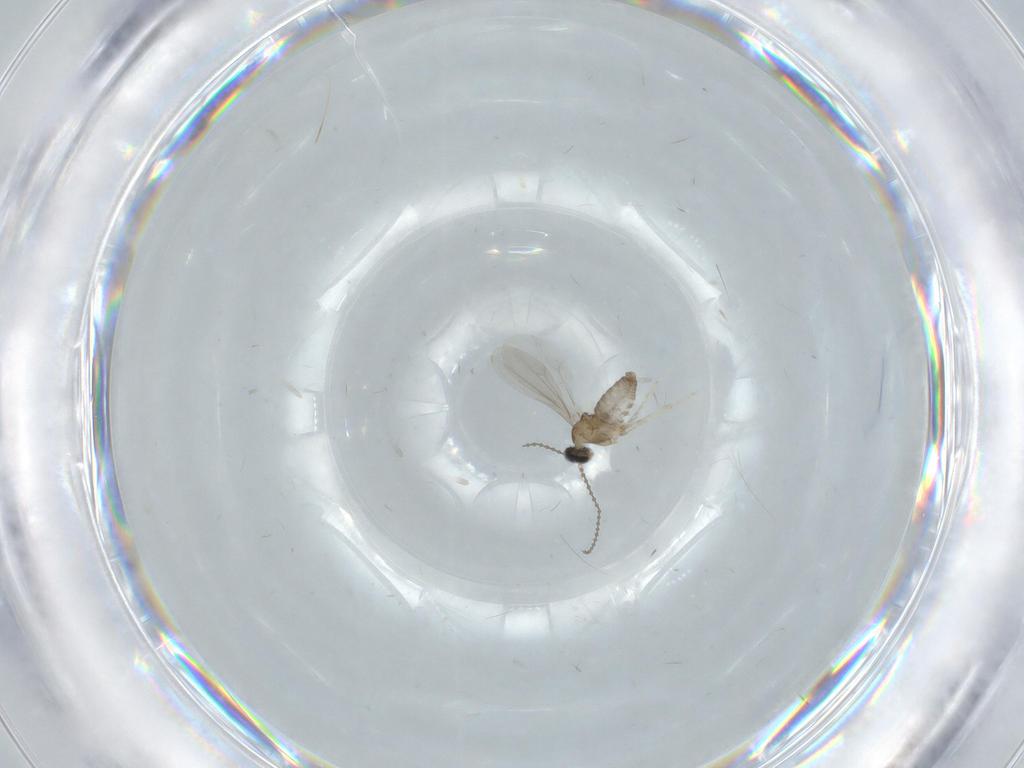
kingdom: Animalia
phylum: Arthropoda
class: Insecta
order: Diptera
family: Cecidomyiidae
